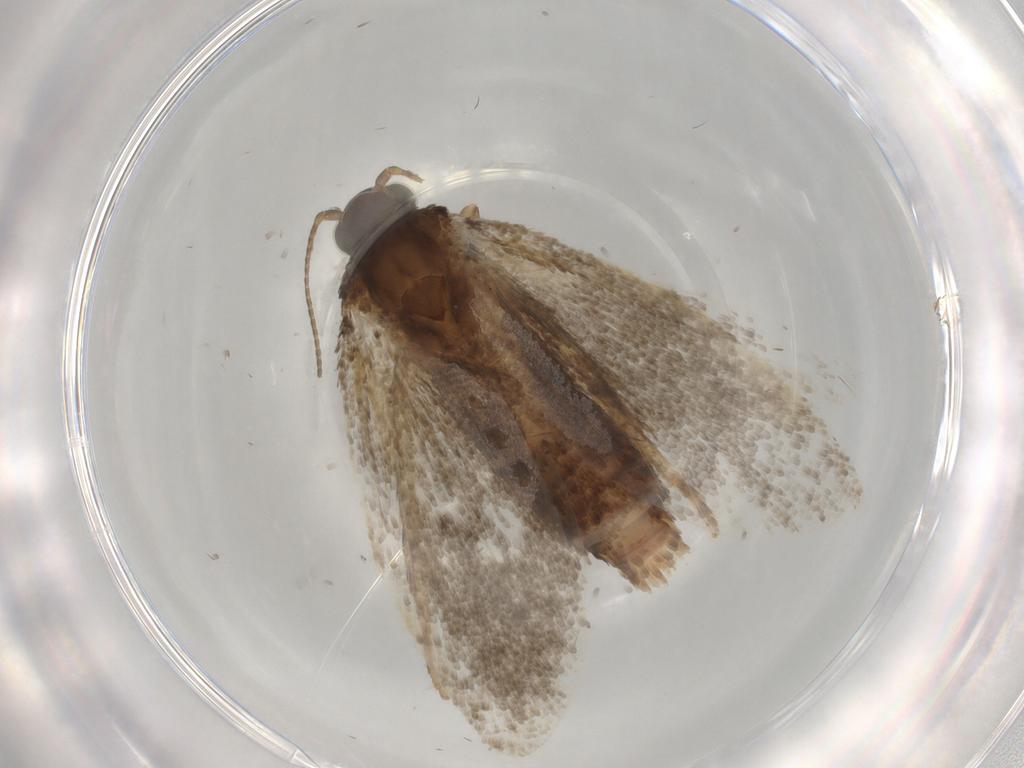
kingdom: Animalia
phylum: Arthropoda
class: Insecta
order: Lepidoptera
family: Tortricidae
